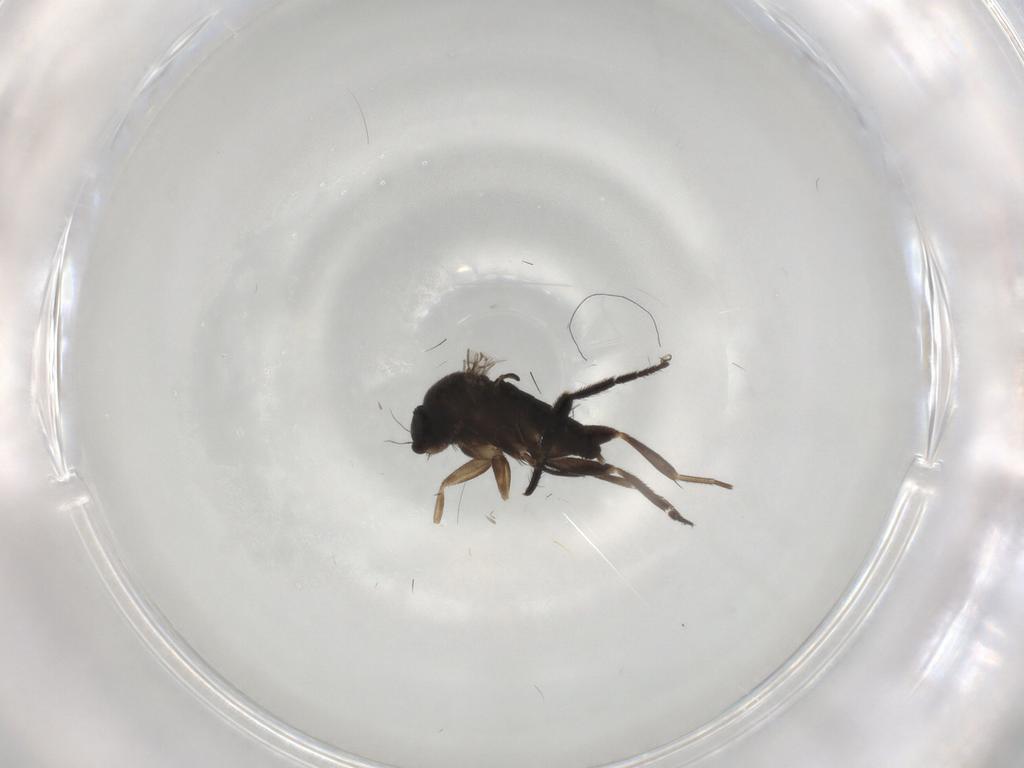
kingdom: Animalia
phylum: Arthropoda
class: Insecta
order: Diptera
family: Phoridae
